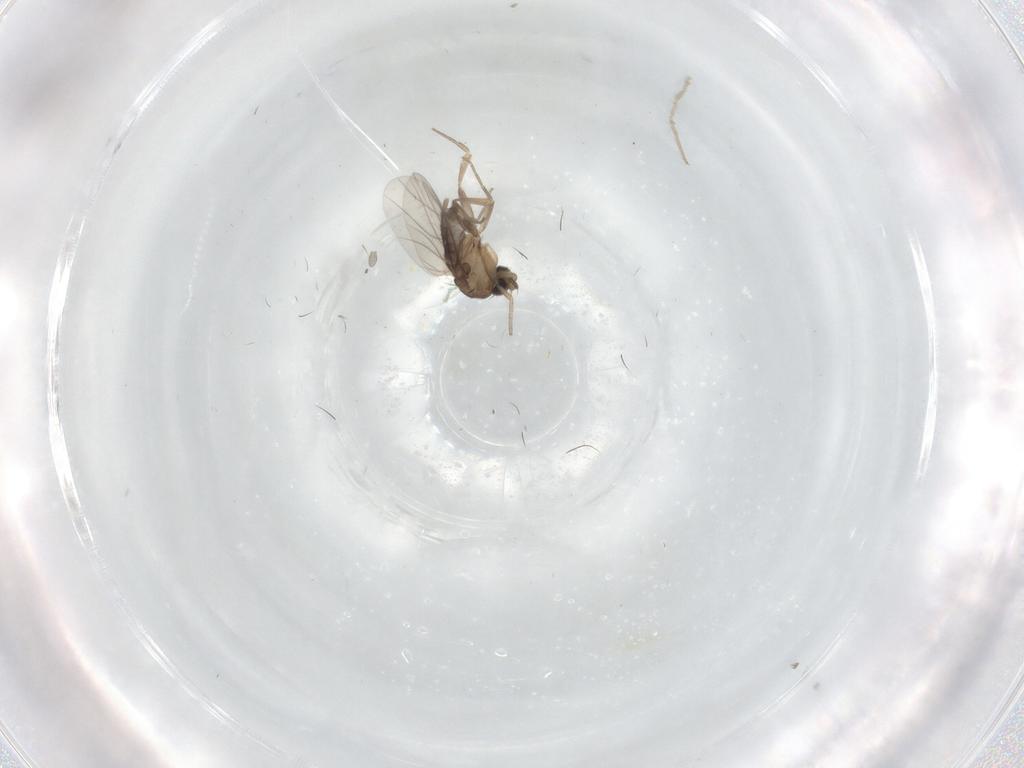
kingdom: Animalia
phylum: Arthropoda
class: Insecta
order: Diptera
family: Phoridae
